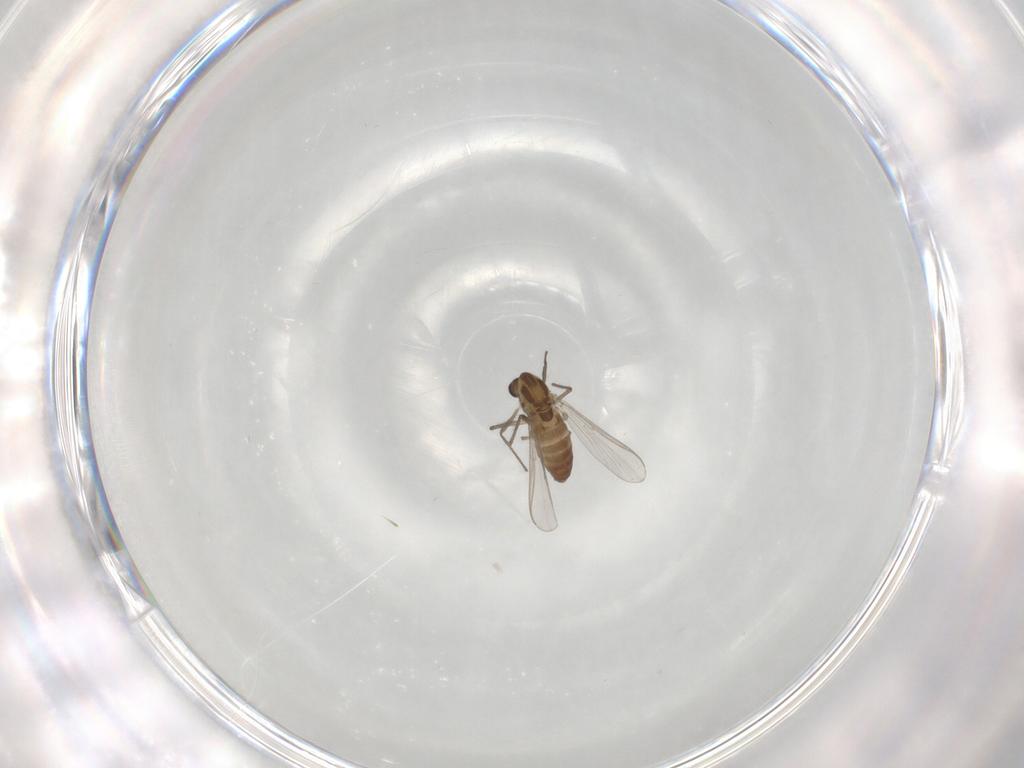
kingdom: Animalia
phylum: Arthropoda
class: Insecta
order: Diptera
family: Chironomidae
